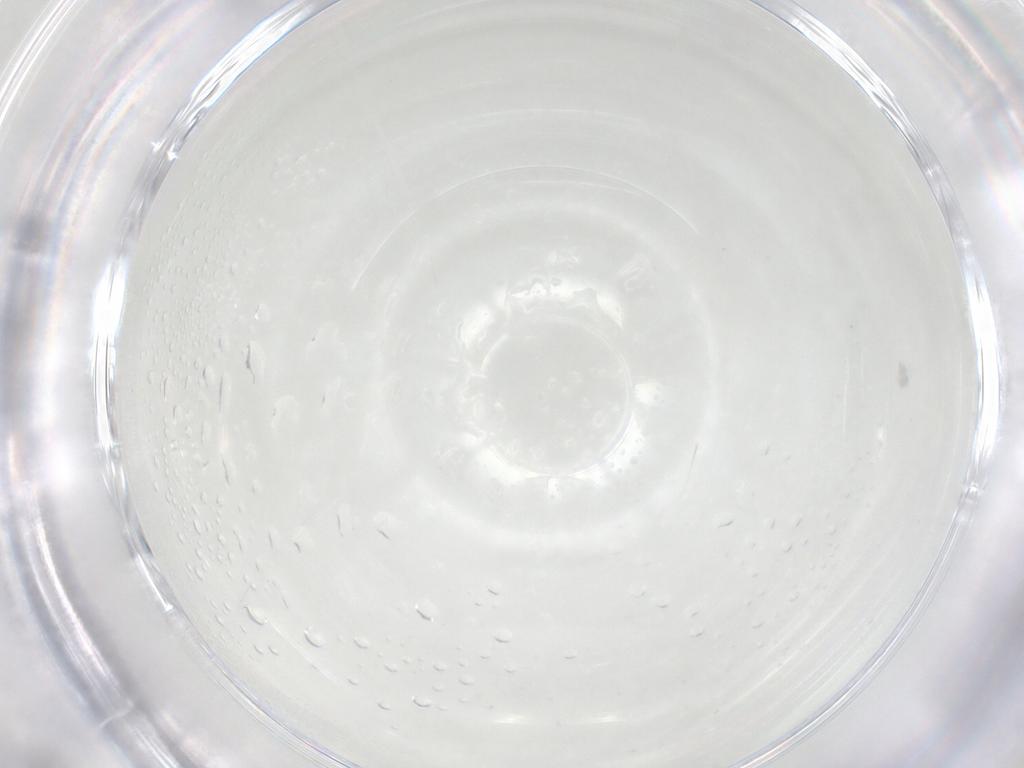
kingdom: Animalia
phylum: Arthropoda
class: Arachnida
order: Trombidiformes
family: Erythraeidae
